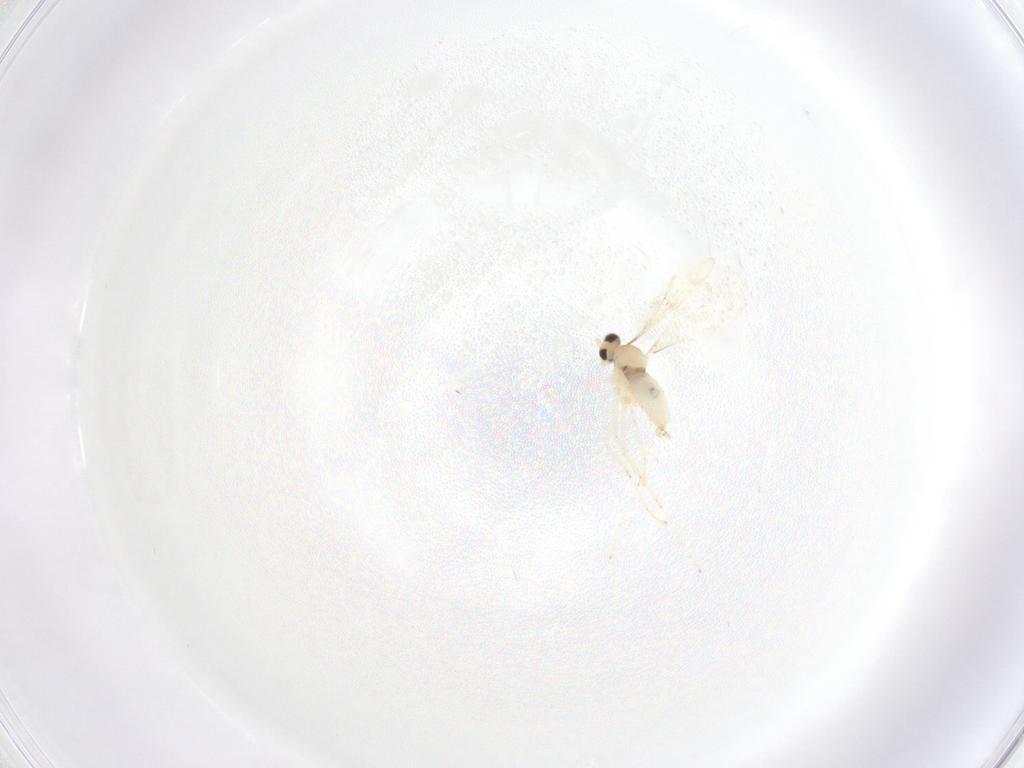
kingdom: Animalia
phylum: Arthropoda
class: Insecta
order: Diptera
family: Cecidomyiidae
